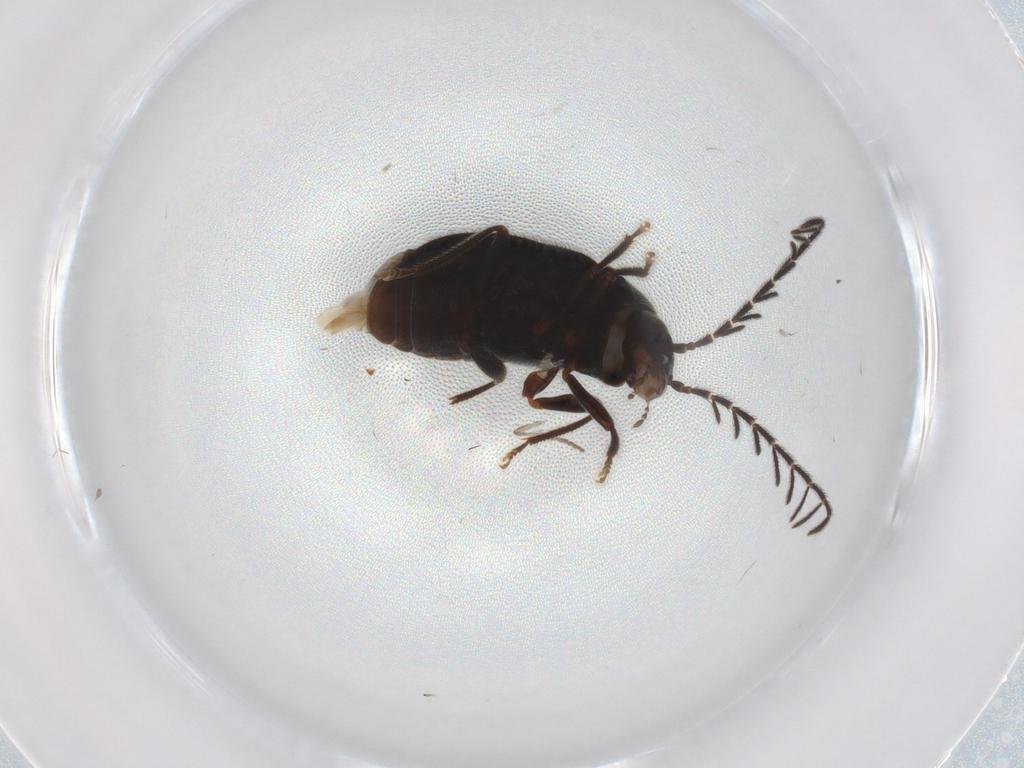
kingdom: Animalia
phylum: Arthropoda
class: Insecta
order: Coleoptera
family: Ptilodactylidae
